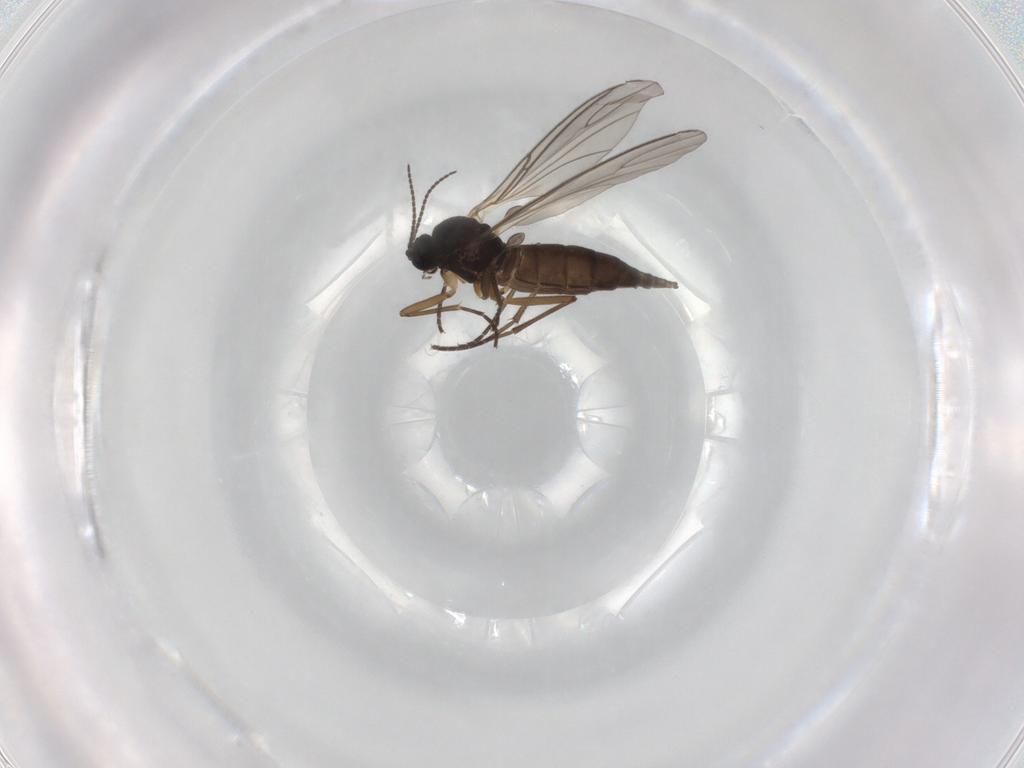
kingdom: Animalia
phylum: Arthropoda
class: Insecta
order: Diptera
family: Sciaridae
